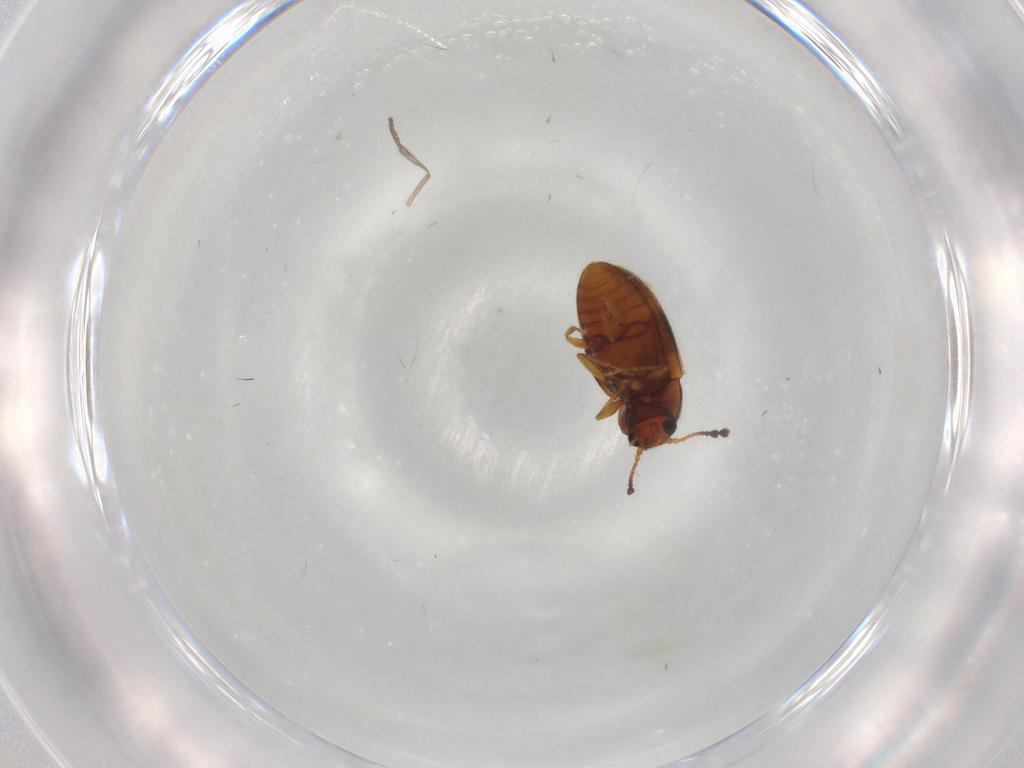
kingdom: Animalia
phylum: Arthropoda
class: Insecta
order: Coleoptera
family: Erotylidae
